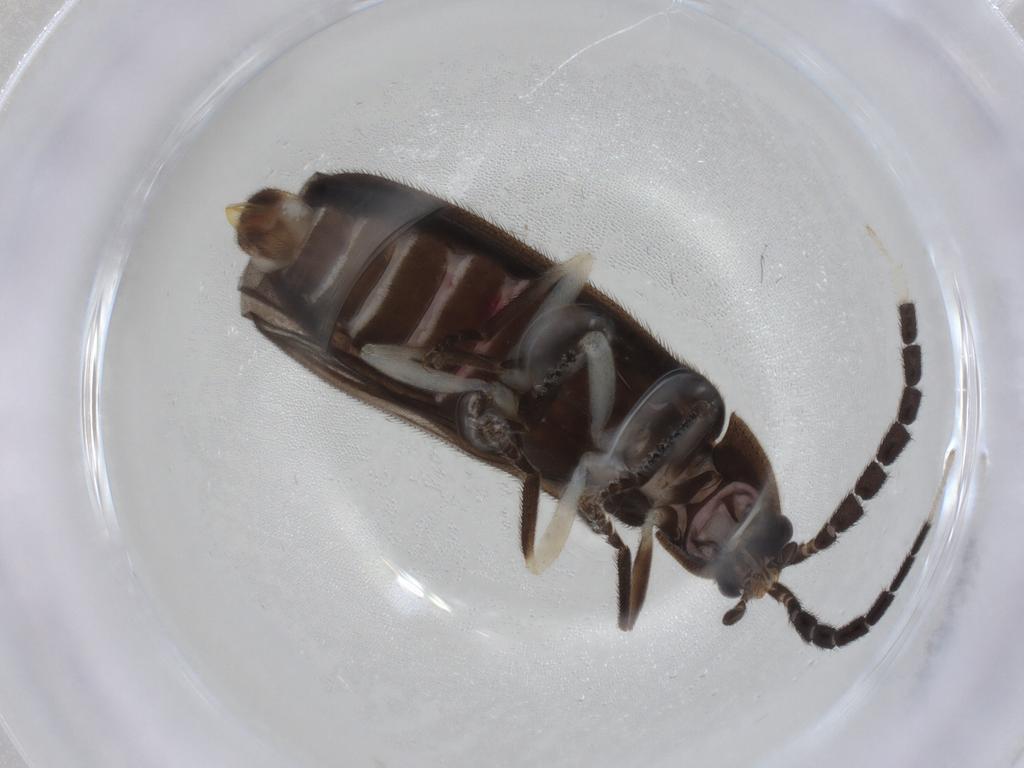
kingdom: Animalia
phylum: Arthropoda
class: Insecta
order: Coleoptera
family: Lampyridae
